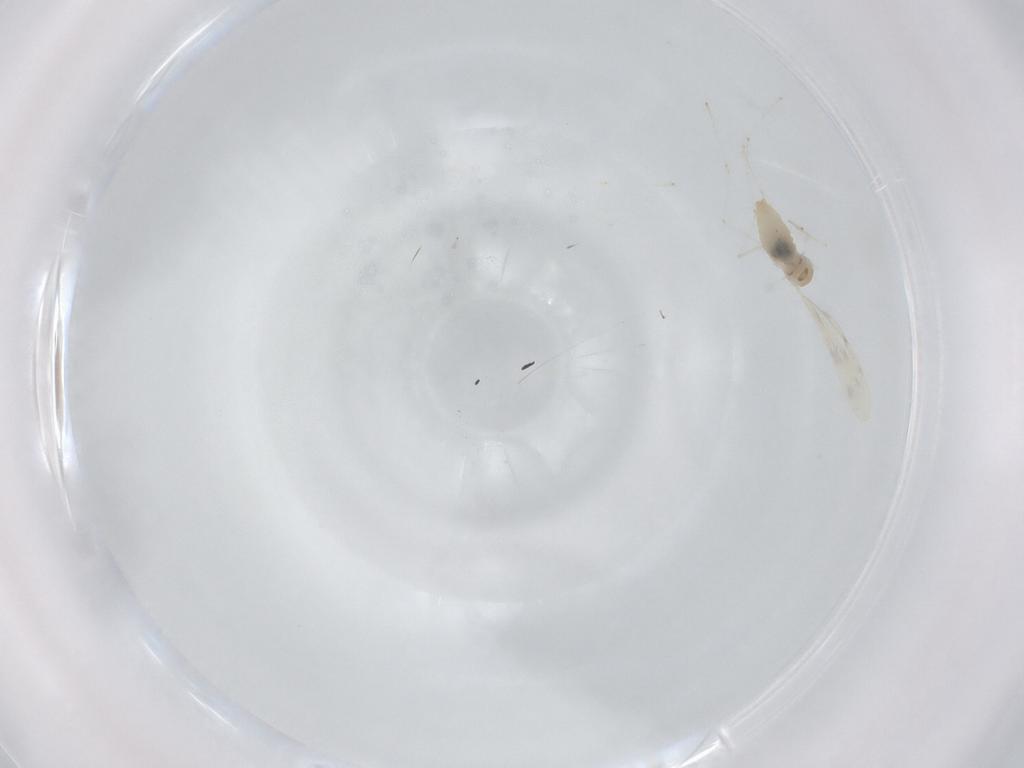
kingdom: Animalia
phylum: Arthropoda
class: Insecta
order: Diptera
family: Cecidomyiidae
